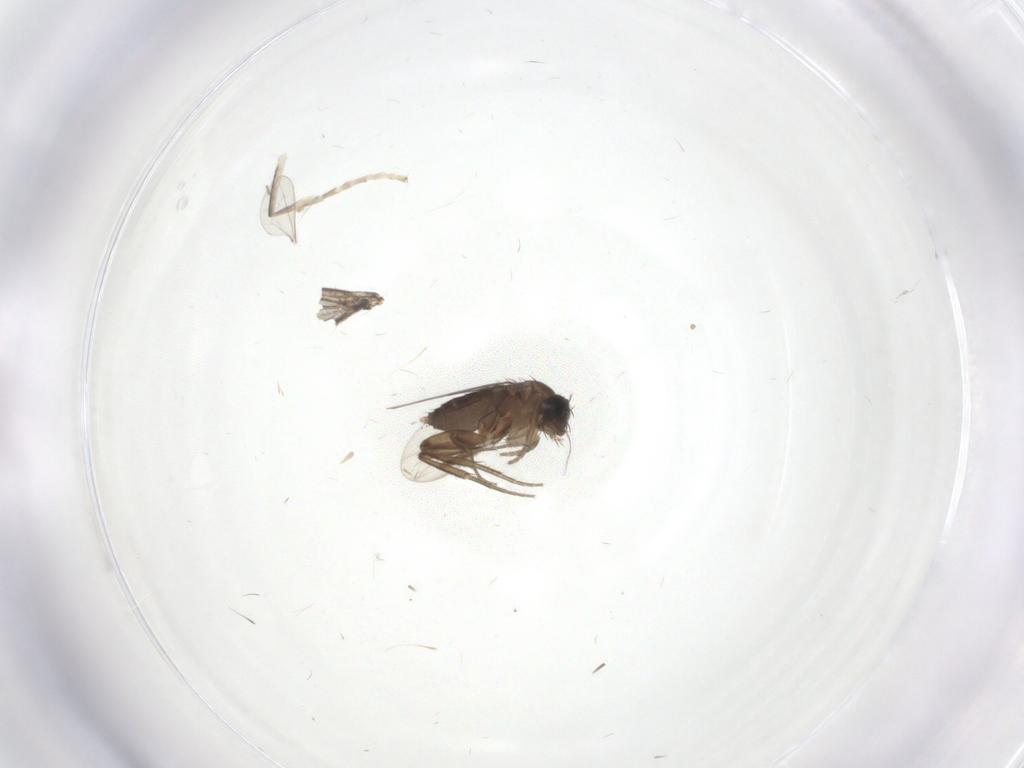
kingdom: Animalia
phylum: Arthropoda
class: Insecta
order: Diptera
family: Phoridae
